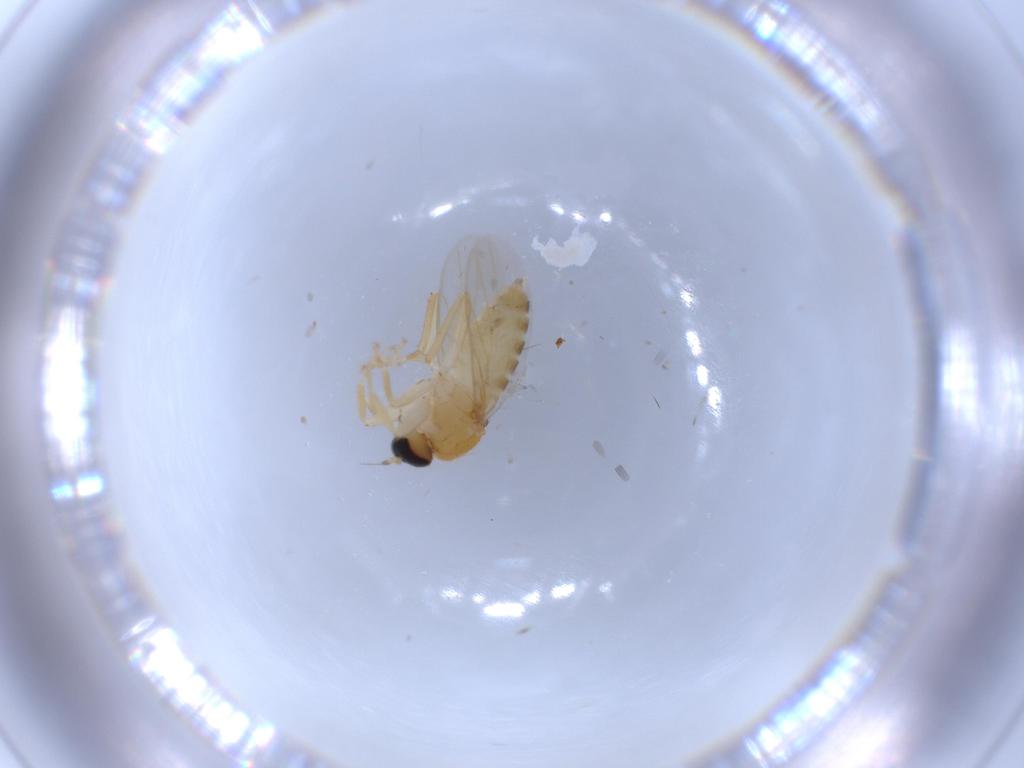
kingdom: Animalia
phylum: Arthropoda
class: Insecta
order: Diptera
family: Hybotidae
